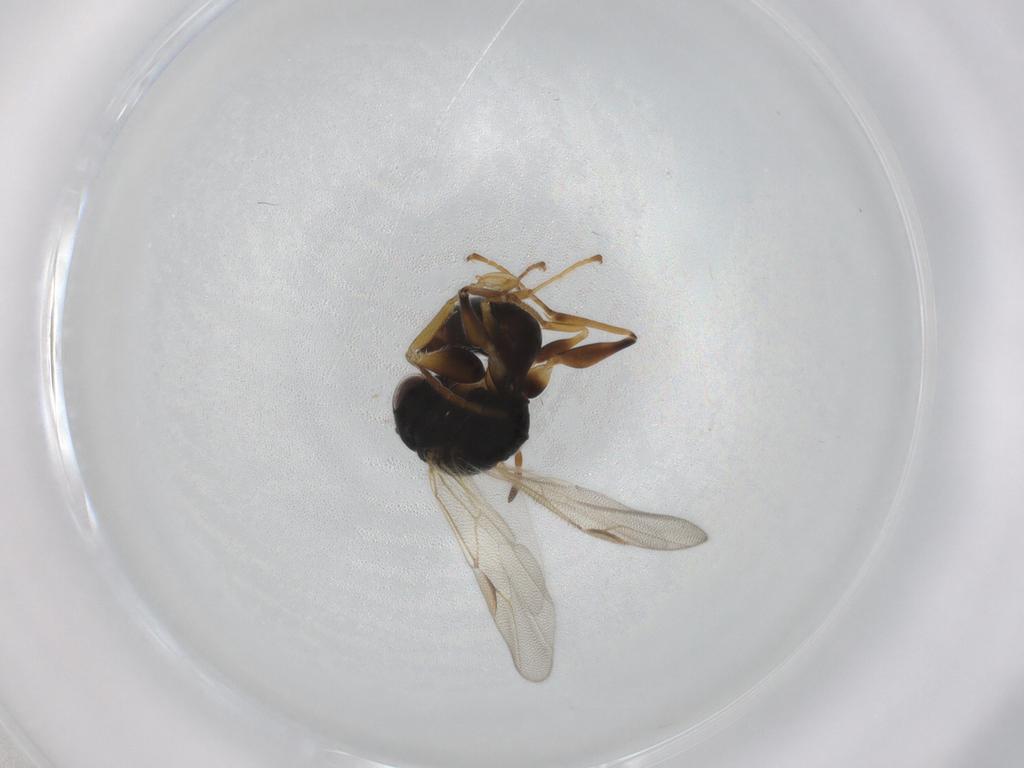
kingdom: Animalia
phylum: Arthropoda
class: Insecta
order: Hymenoptera
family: Dryinidae
